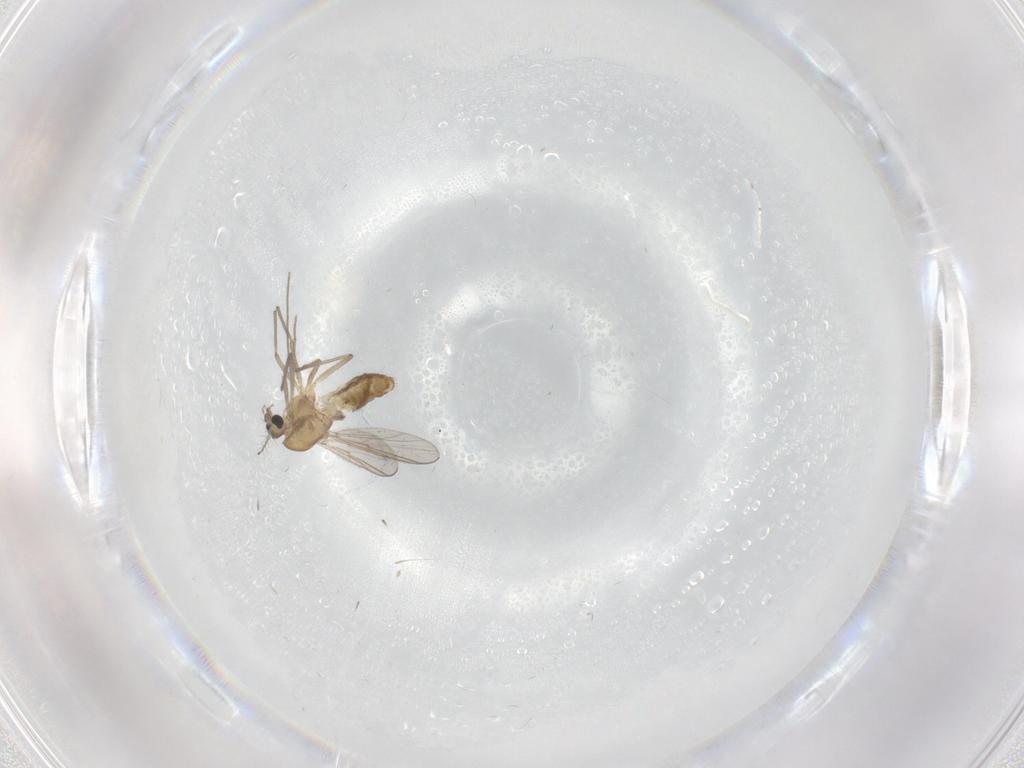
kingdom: Animalia
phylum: Arthropoda
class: Insecta
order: Diptera
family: Chironomidae
